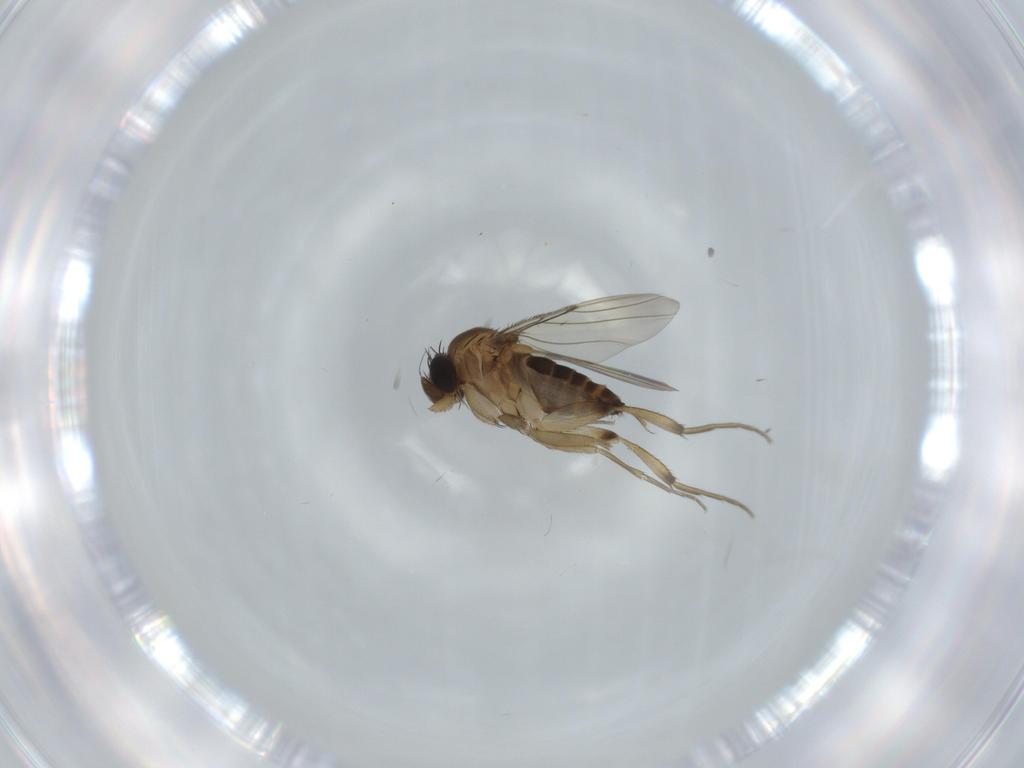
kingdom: Animalia
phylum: Arthropoda
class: Insecta
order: Diptera
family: Phoridae
